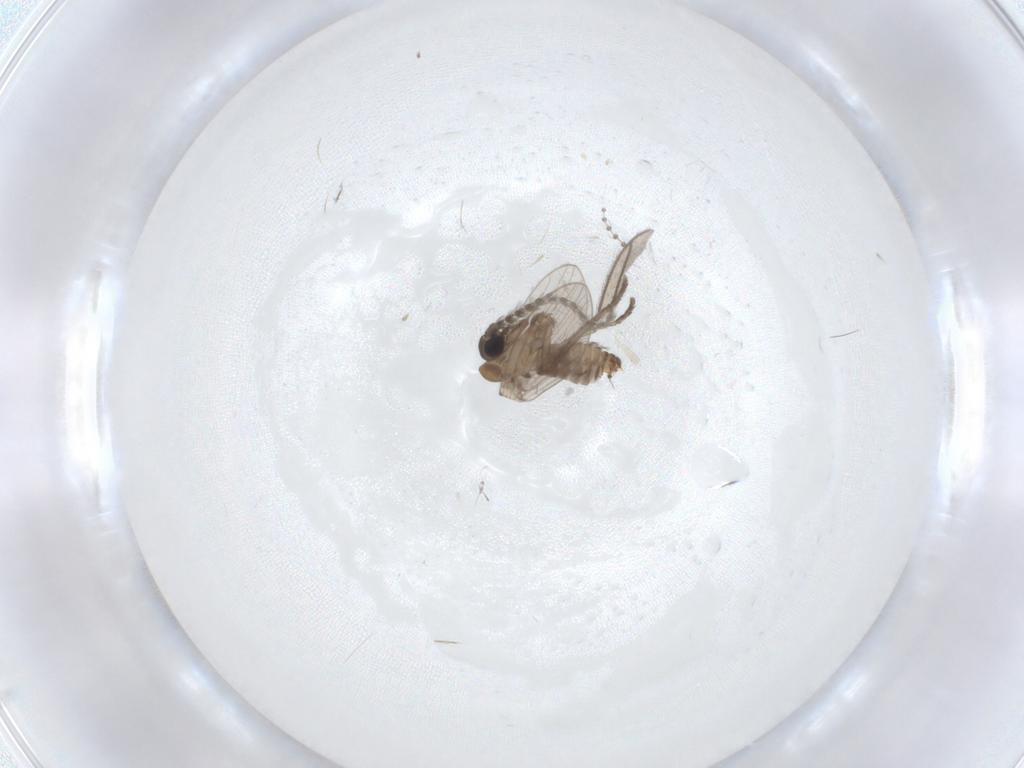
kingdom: Animalia
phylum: Arthropoda
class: Insecta
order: Diptera
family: Psychodidae
